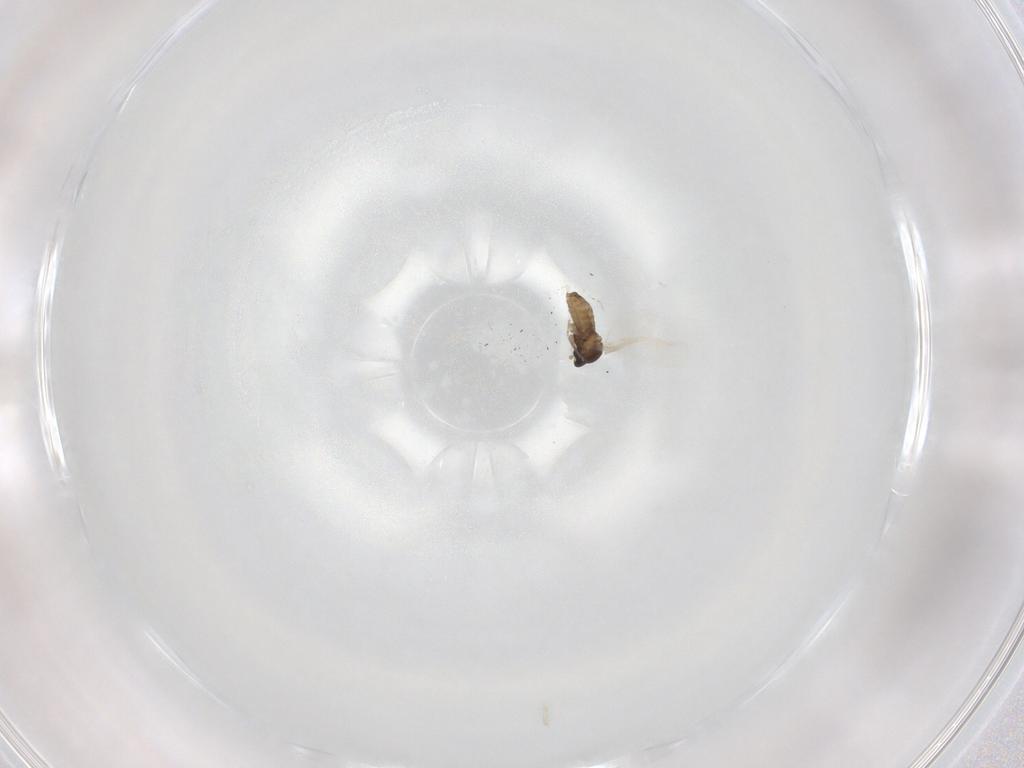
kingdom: Animalia
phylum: Arthropoda
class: Insecta
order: Diptera
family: Cecidomyiidae
